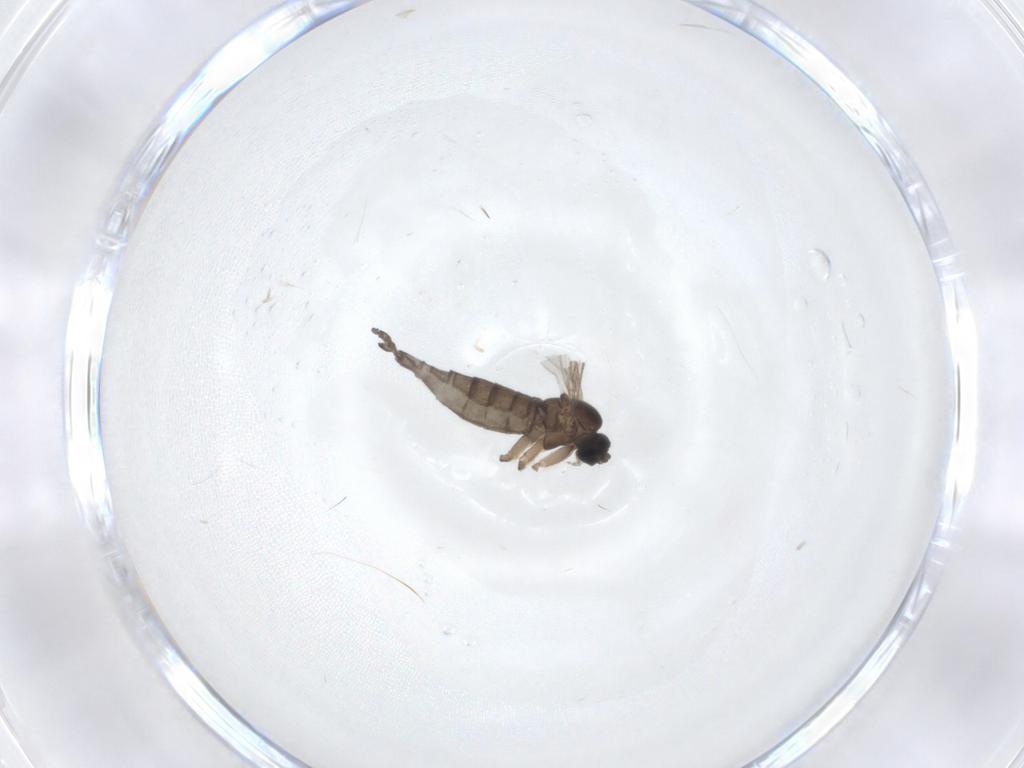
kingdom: Animalia
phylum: Arthropoda
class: Insecta
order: Diptera
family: Sciaridae
